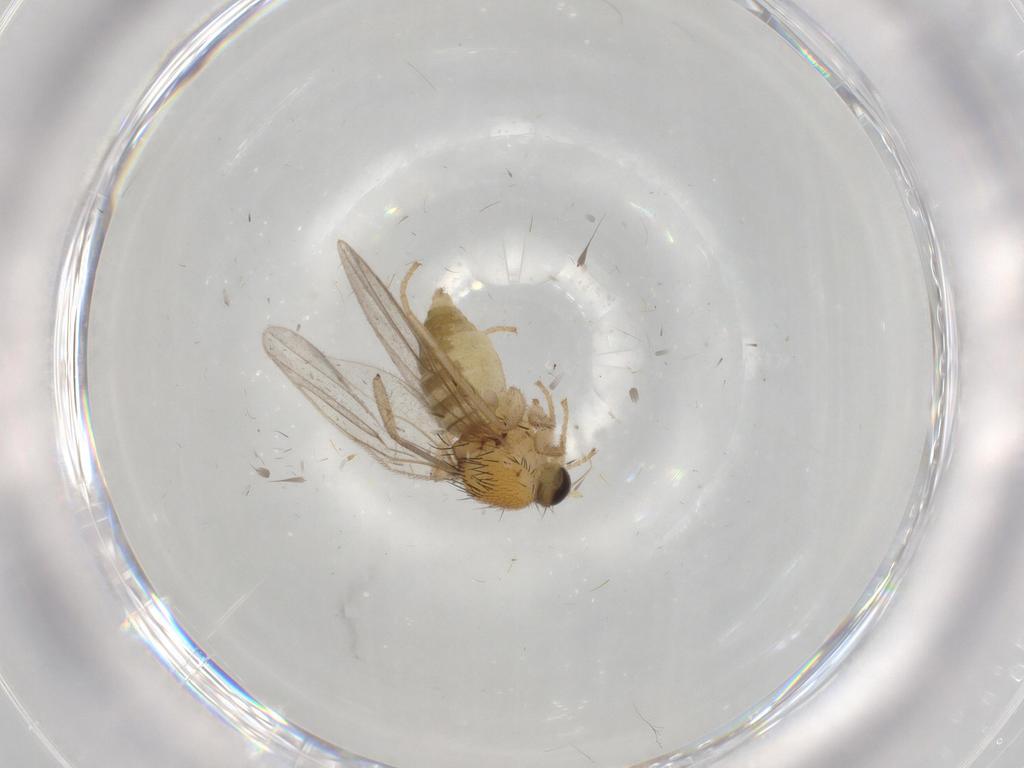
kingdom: Animalia
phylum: Arthropoda
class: Insecta
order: Diptera
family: Hybotidae
